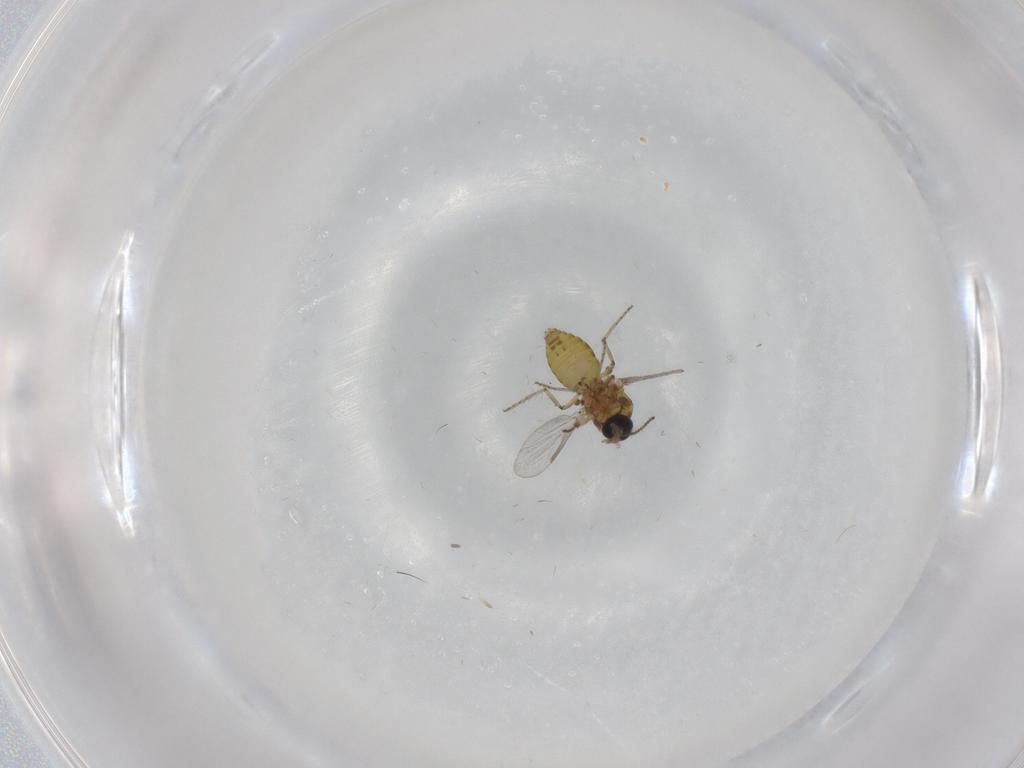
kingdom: Animalia
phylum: Arthropoda
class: Insecta
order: Diptera
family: Ceratopogonidae
